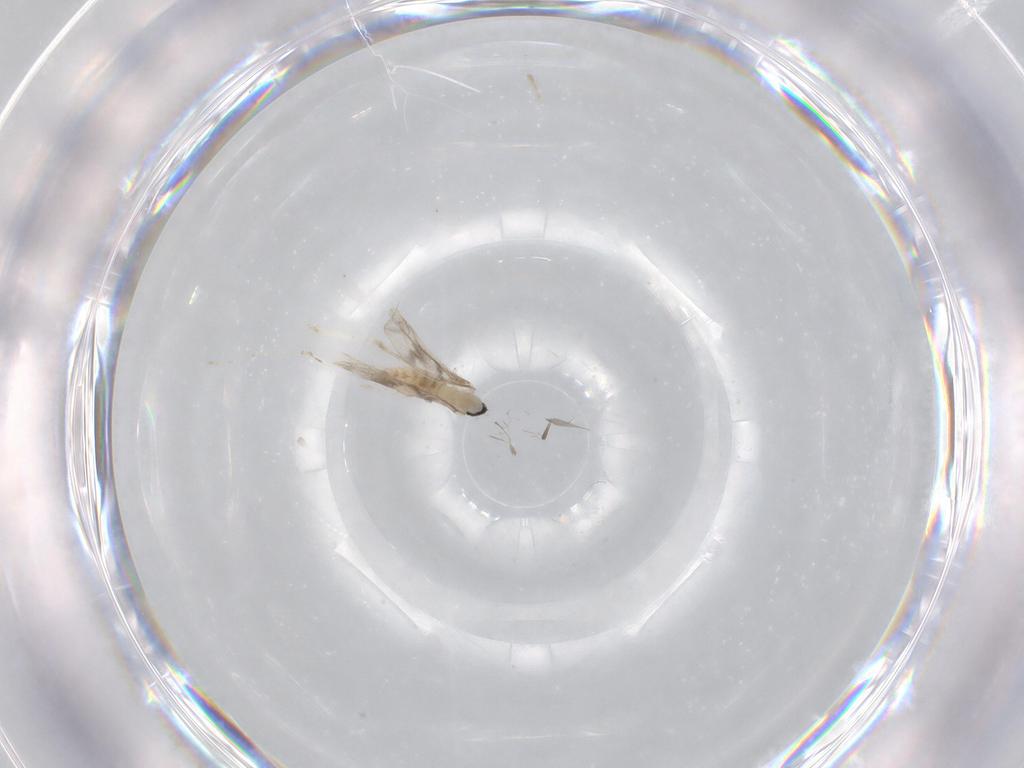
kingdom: Animalia
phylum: Arthropoda
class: Insecta
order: Diptera
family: Cecidomyiidae
